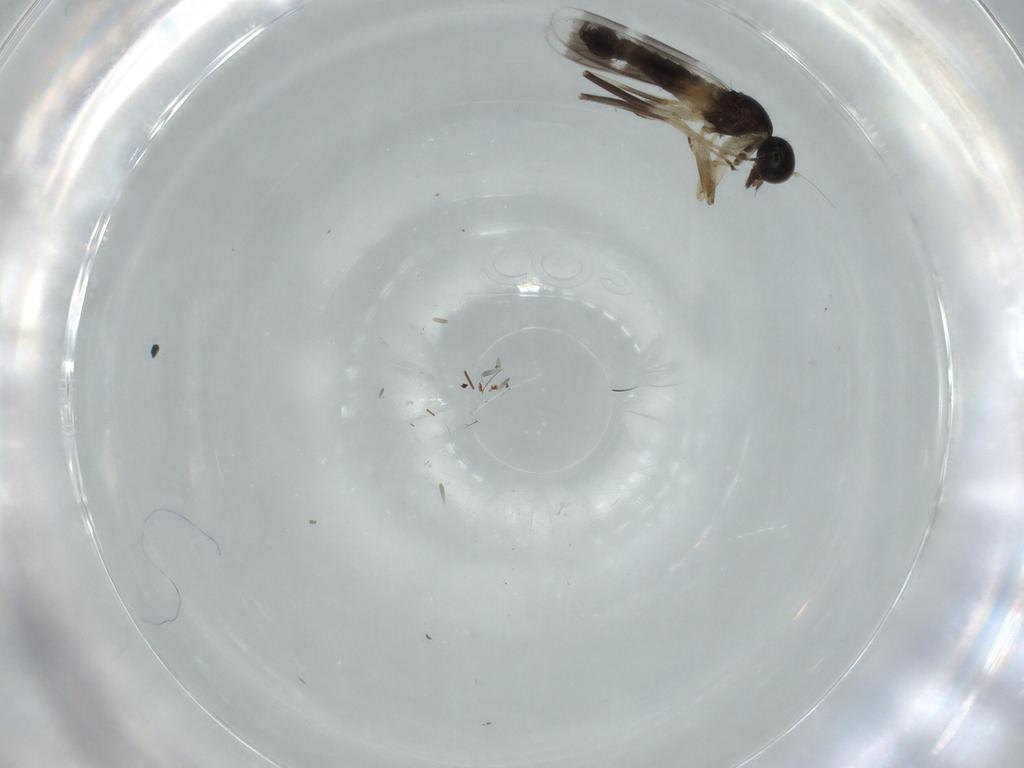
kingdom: Animalia
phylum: Arthropoda
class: Insecta
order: Diptera
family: Hybotidae
